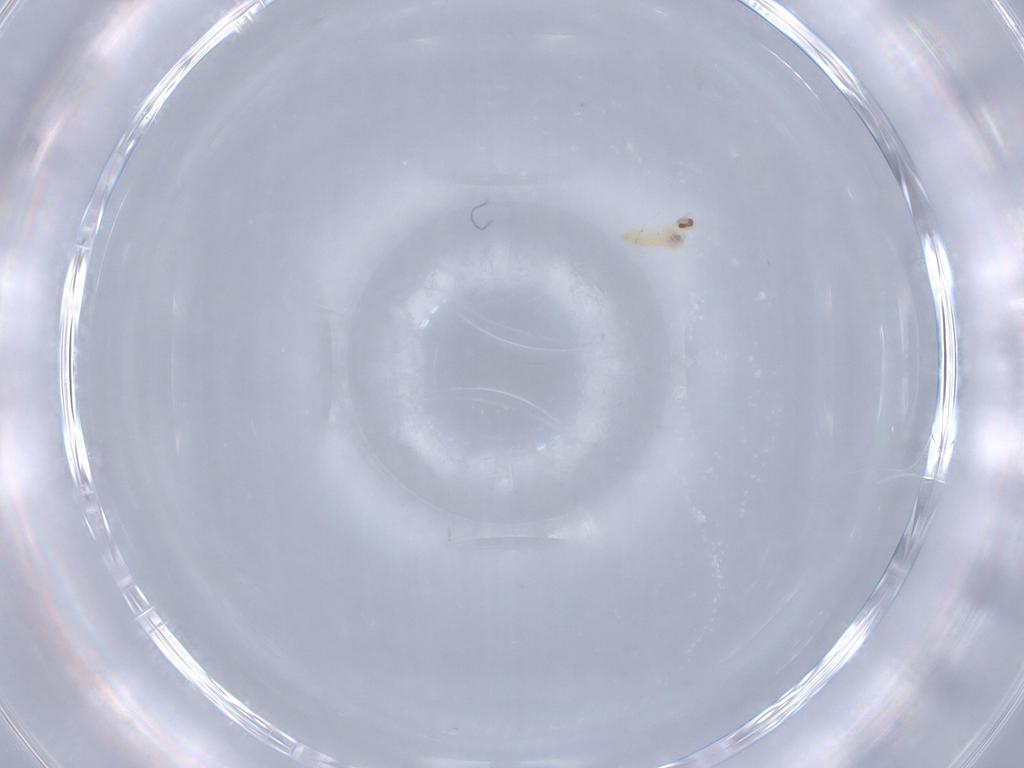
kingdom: Animalia
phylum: Arthropoda
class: Insecta
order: Diptera
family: Cecidomyiidae
